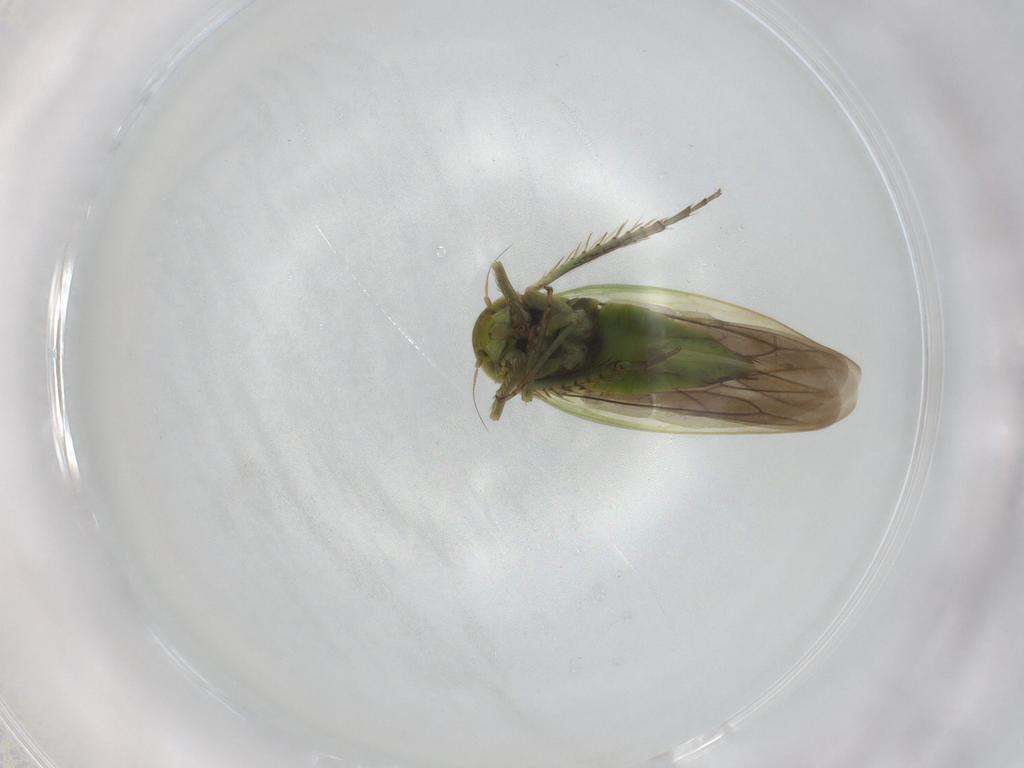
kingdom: Animalia
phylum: Arthropoda
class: Insecta
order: Hemiptera
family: Cicadellidae
